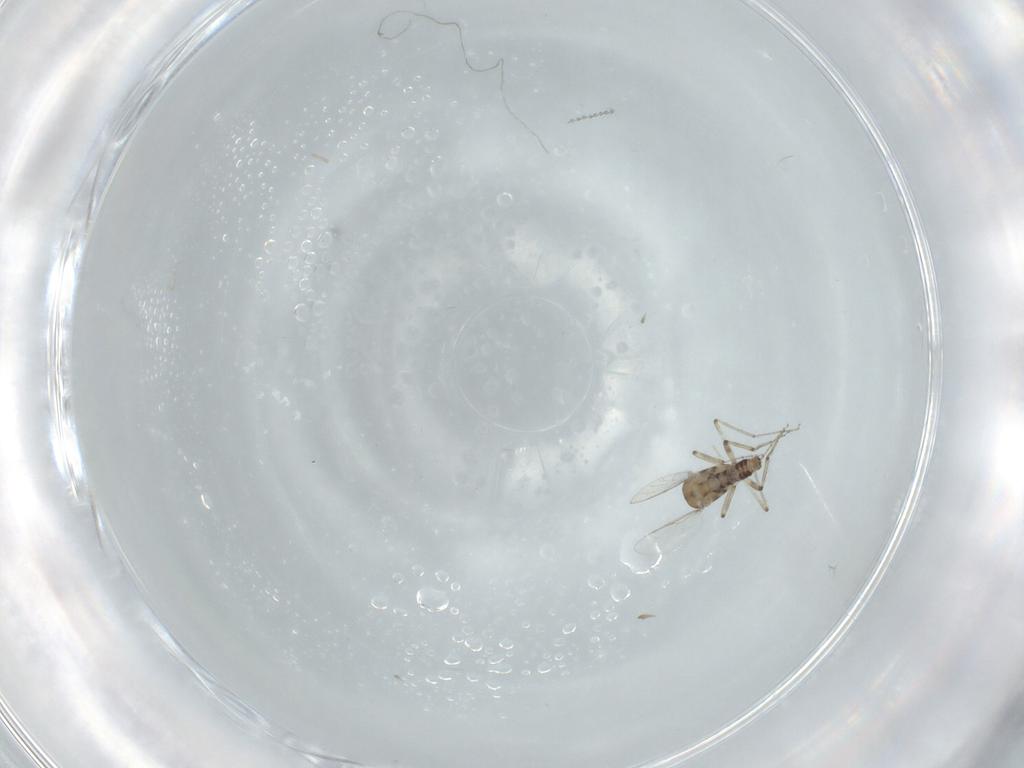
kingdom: Animalia
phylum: Arthropoda
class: Insecta
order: Diptera
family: Ceratopogonidae
